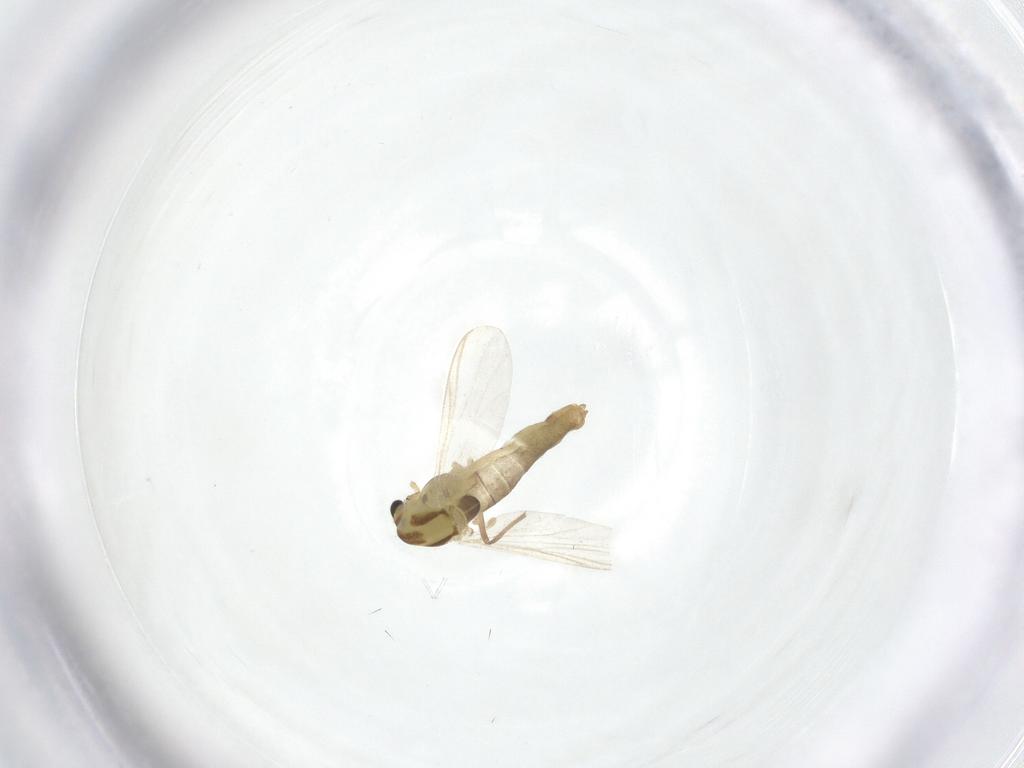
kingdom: Animalia
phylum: Arthropoda
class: Insecta
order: Diptera
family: Chironomidae
